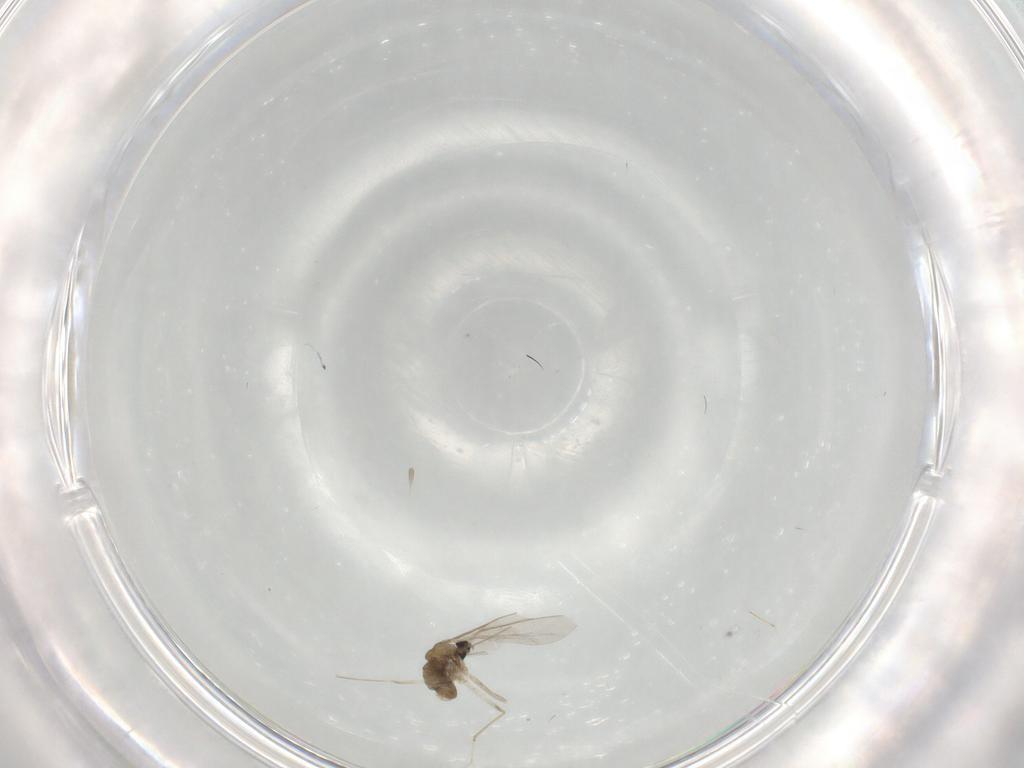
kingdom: Animalia
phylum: Arthropoda
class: Insecta
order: Diptera
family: Cecidomyiidae
